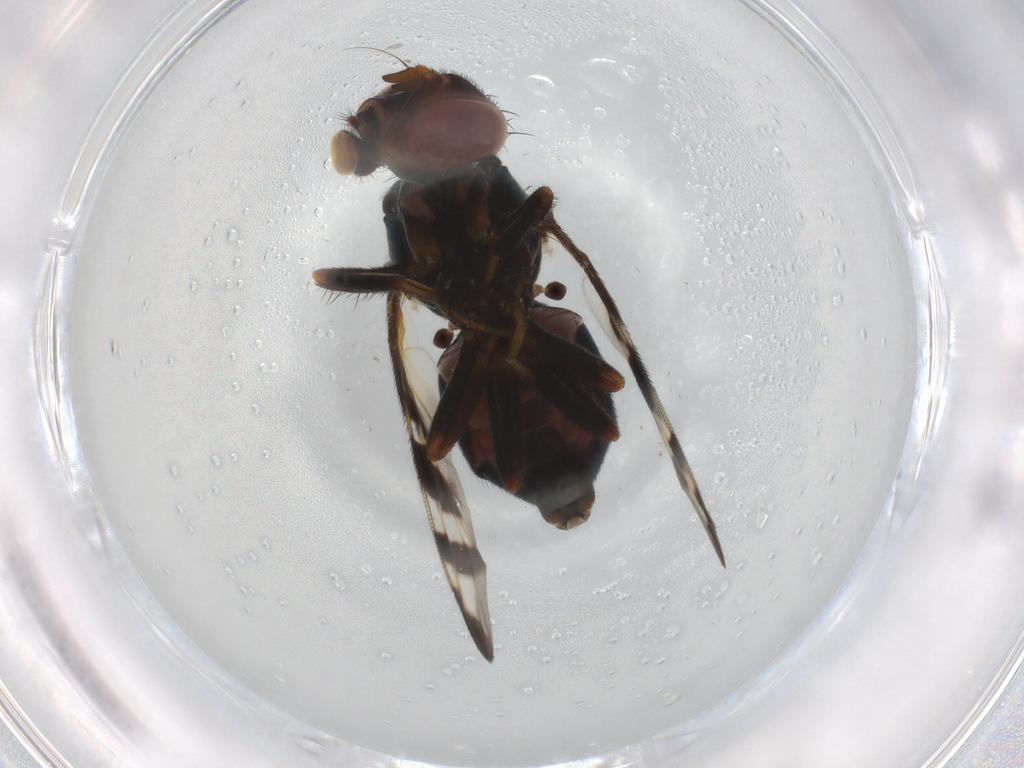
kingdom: Animalia
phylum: Arthropoda
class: Insecta
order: Diptera
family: Platystomatidae
